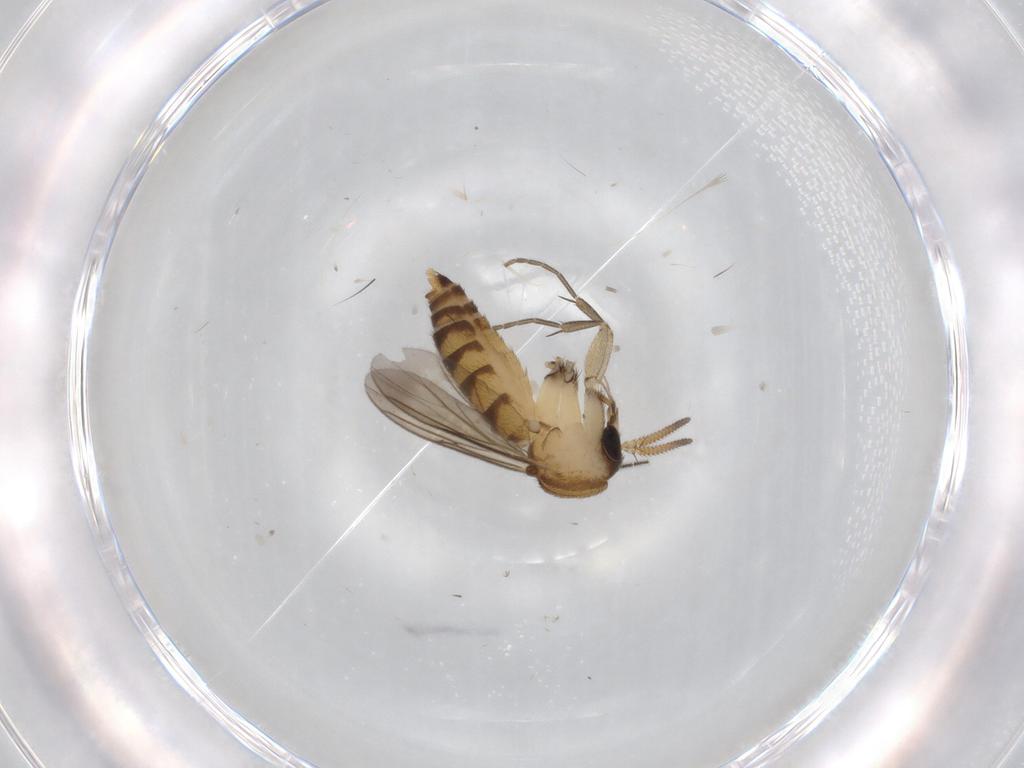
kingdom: Animalia
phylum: Arthropoda
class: Insecta
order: Diptera
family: Mycetophilidae
